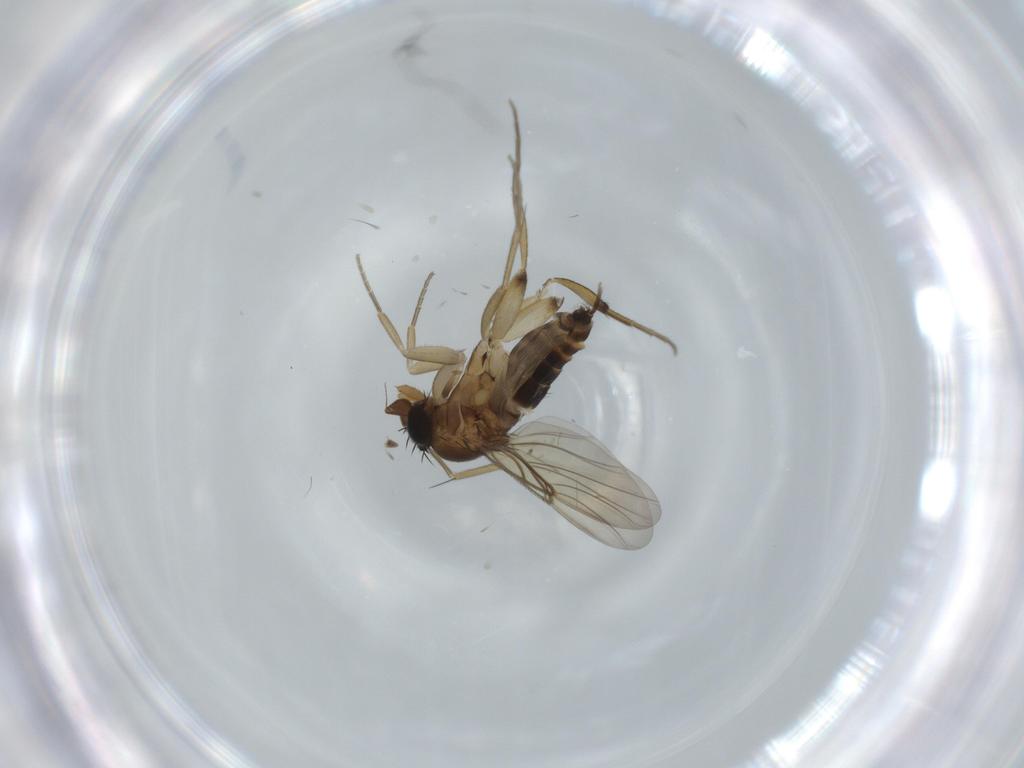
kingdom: Animalia
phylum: Arthropoda
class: Insecta
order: Diptera
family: Phoridae
